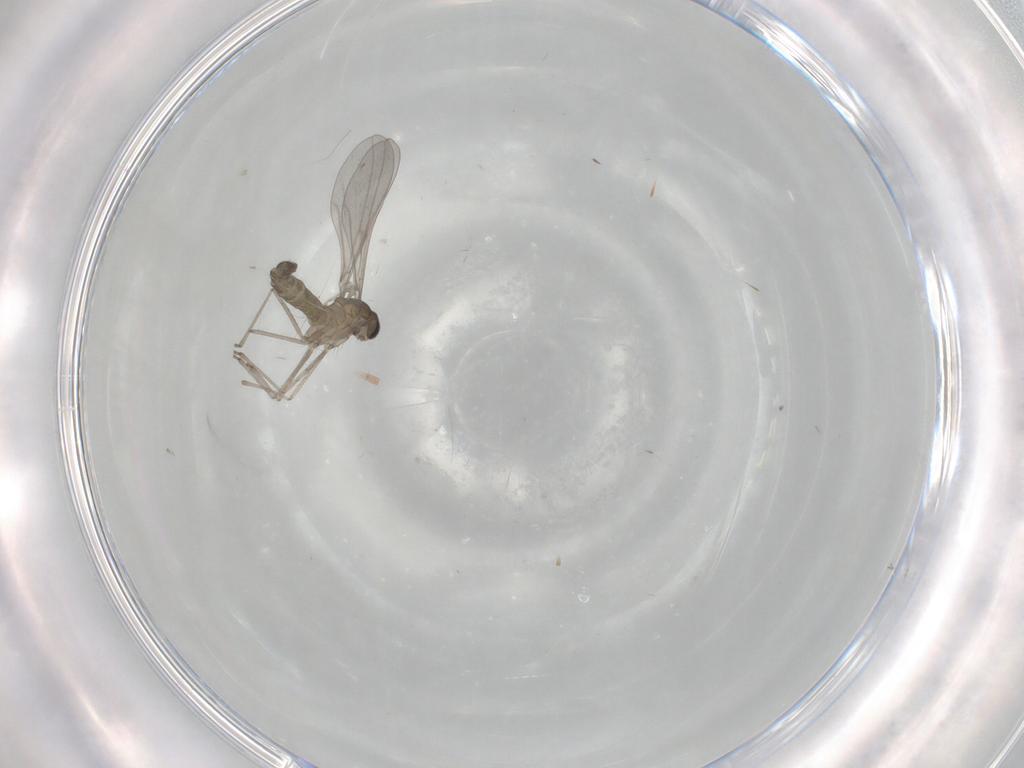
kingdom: Animalia
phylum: Arthropoda
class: Insecta
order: Diptera
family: Cecidomyiidae
